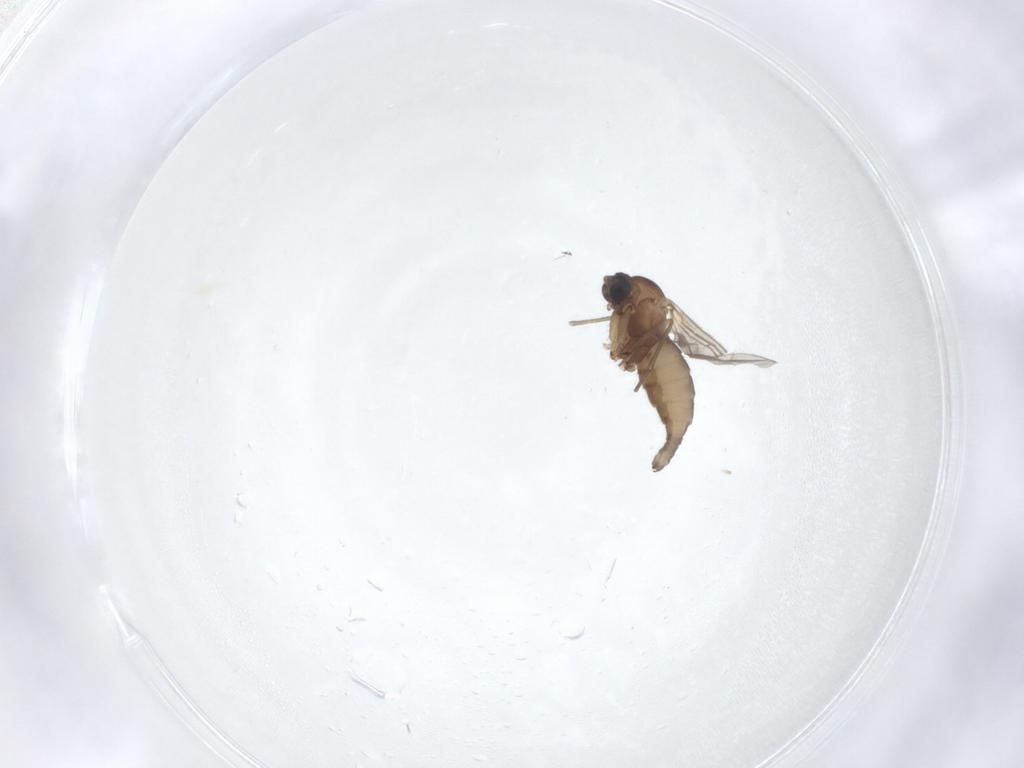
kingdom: Animalia
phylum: Arthropoda
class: Insecta
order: Diptera
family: Sciaridae
